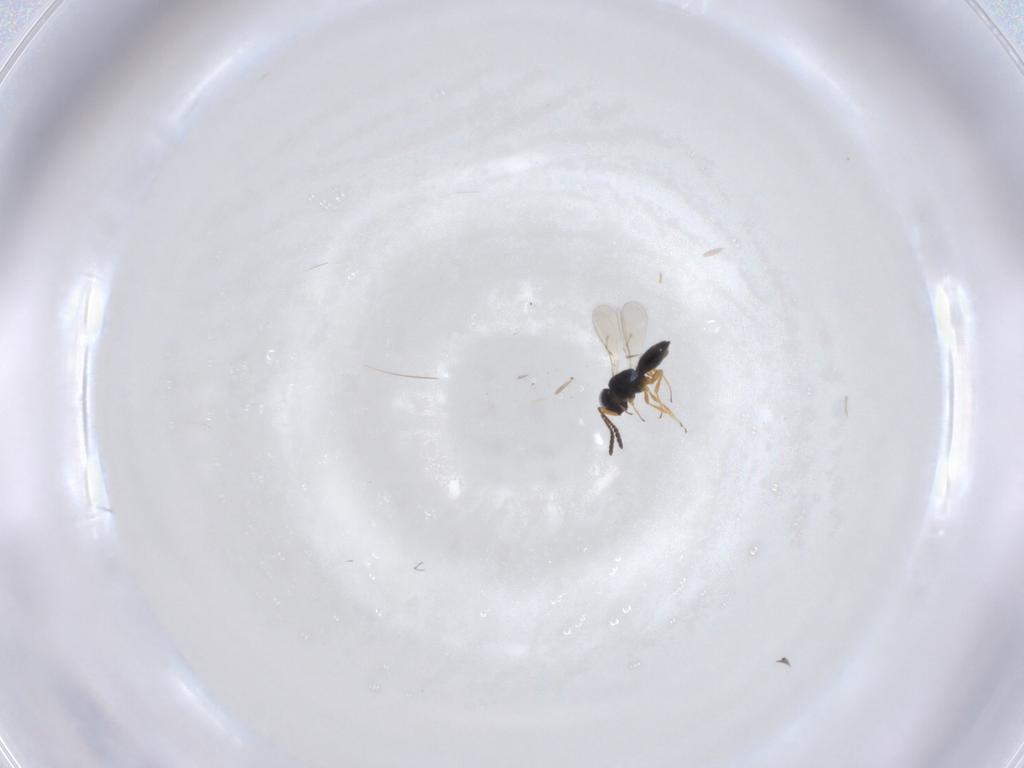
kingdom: Animalia
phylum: Arthropoda
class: Insecta
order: Hymenoptera
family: Scelionidae
